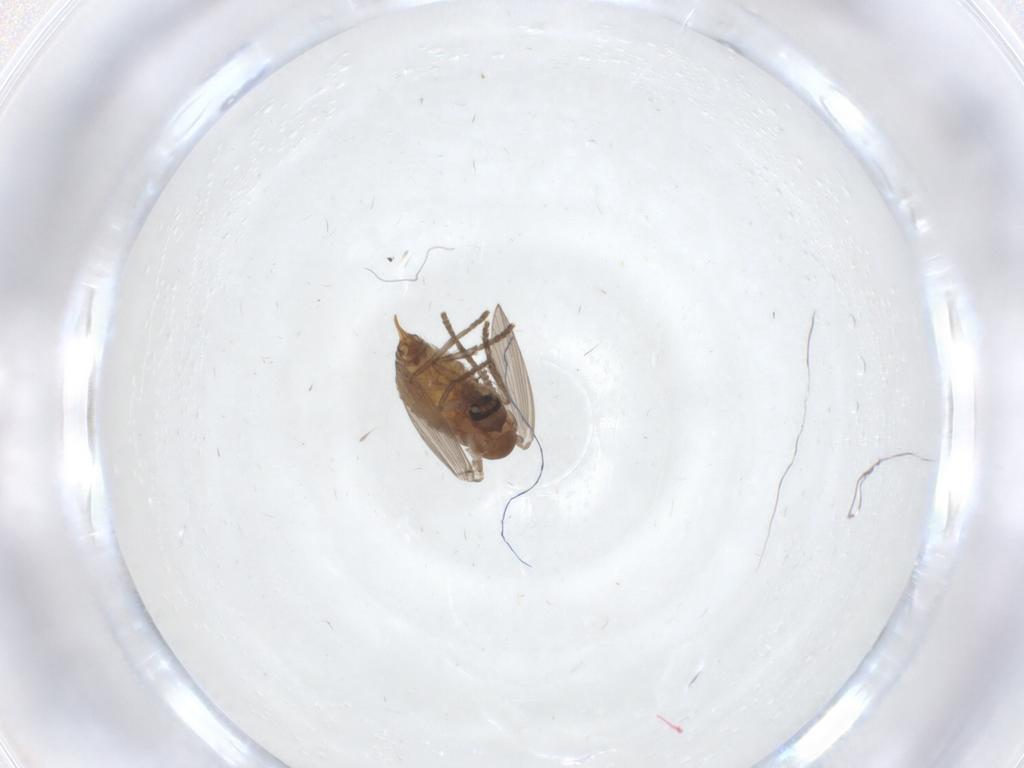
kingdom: Animalia
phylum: Arthropoda
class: Insecta
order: Diptera
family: Psychodidae
